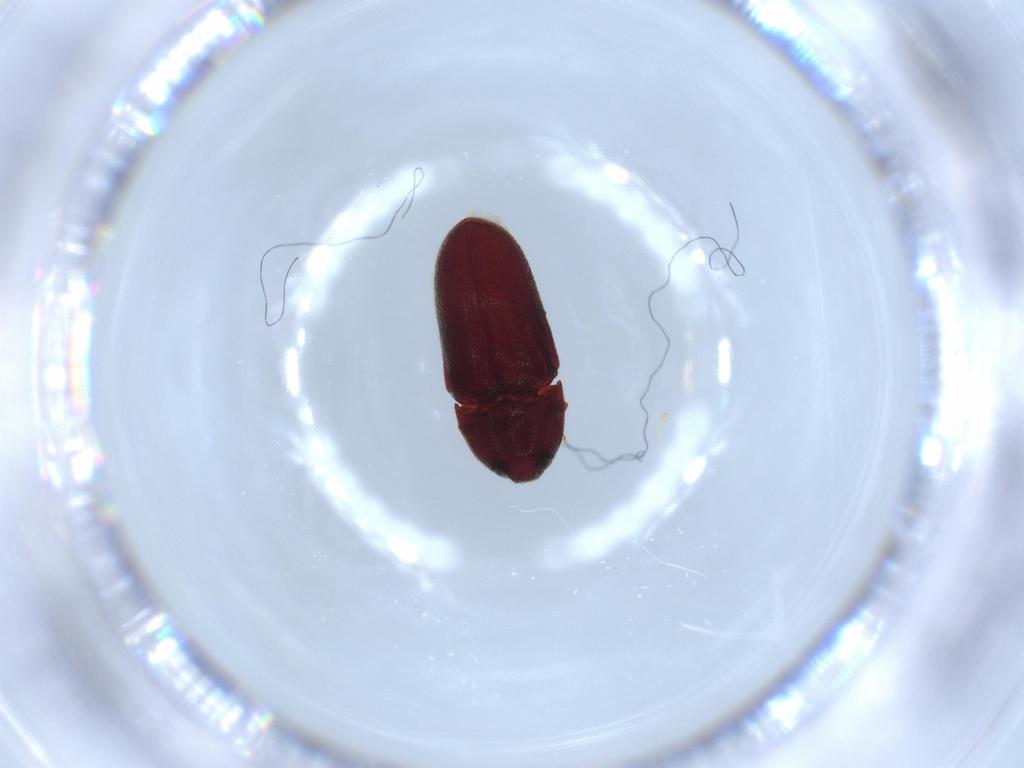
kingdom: Animalia
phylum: Arthropoda
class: Insecta
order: Coleoptera
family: Throscidae
